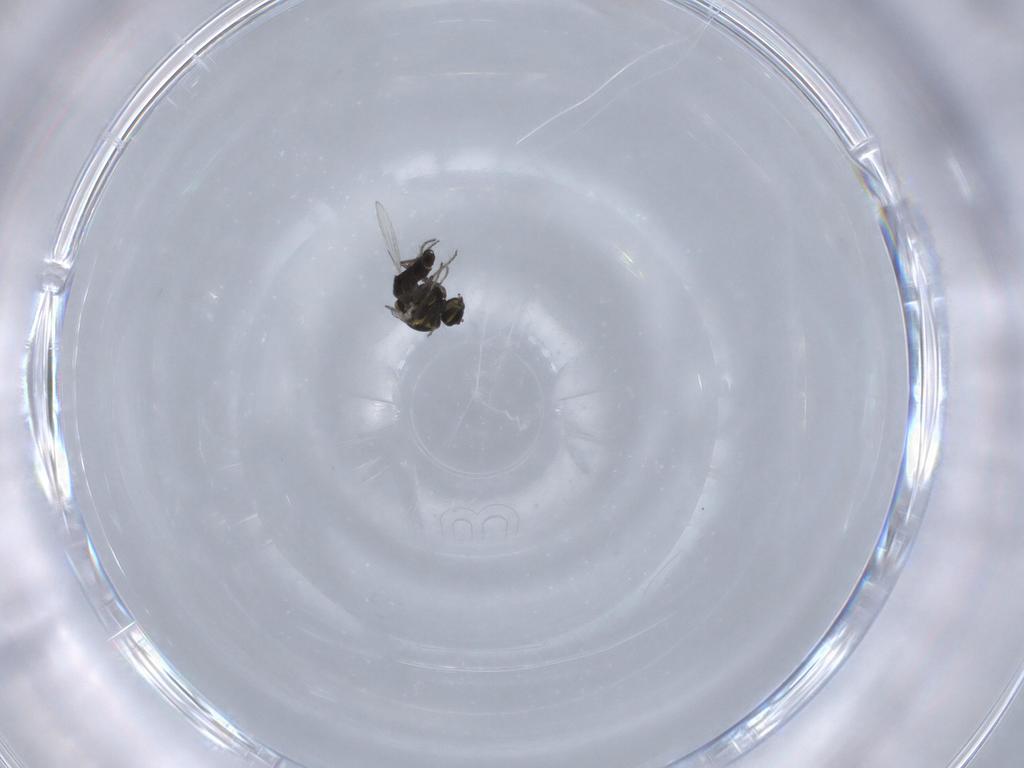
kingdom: Animalia
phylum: Arthropoda
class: Insecta
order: Diptera
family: Ceratopogonidae
